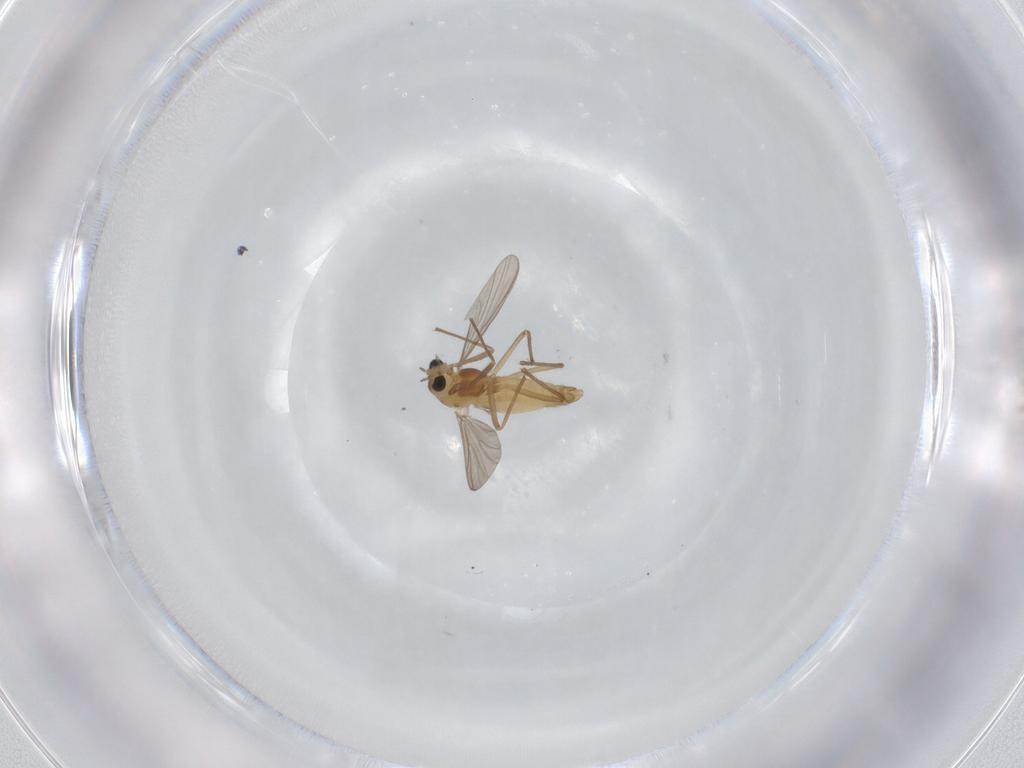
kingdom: Animalia
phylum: Arthropoda
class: Insecta
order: Diptera
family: Chironomidae
